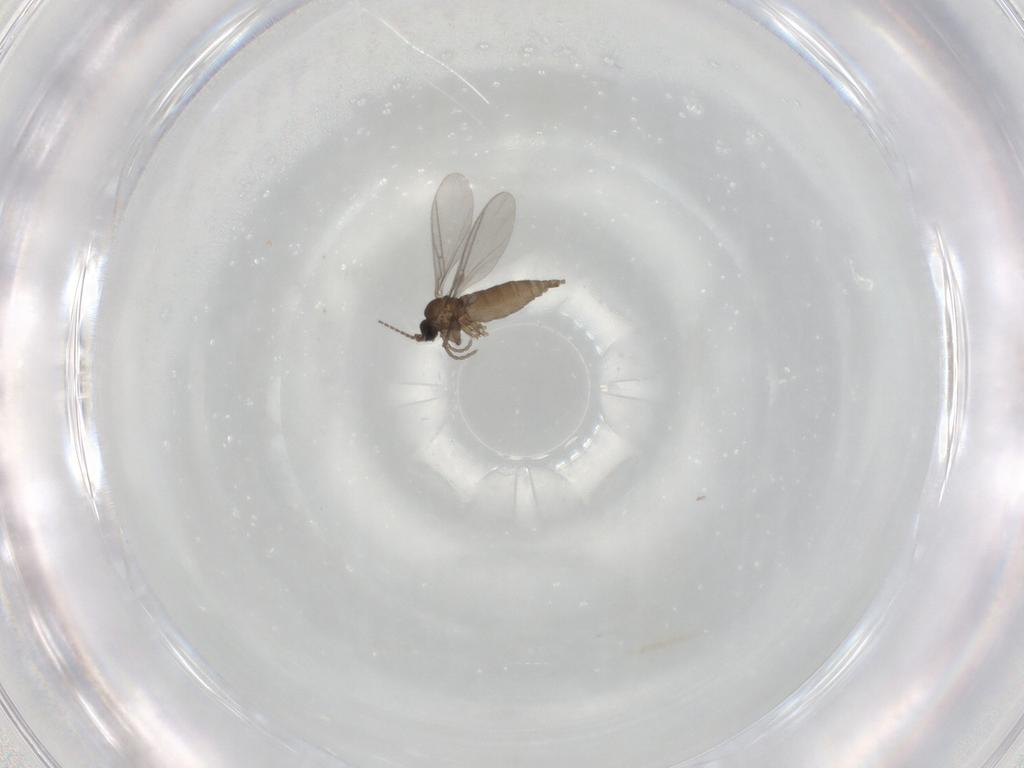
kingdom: Animalia
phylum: Arthropoda
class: Insecta
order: Diptera
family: Sciaridae
